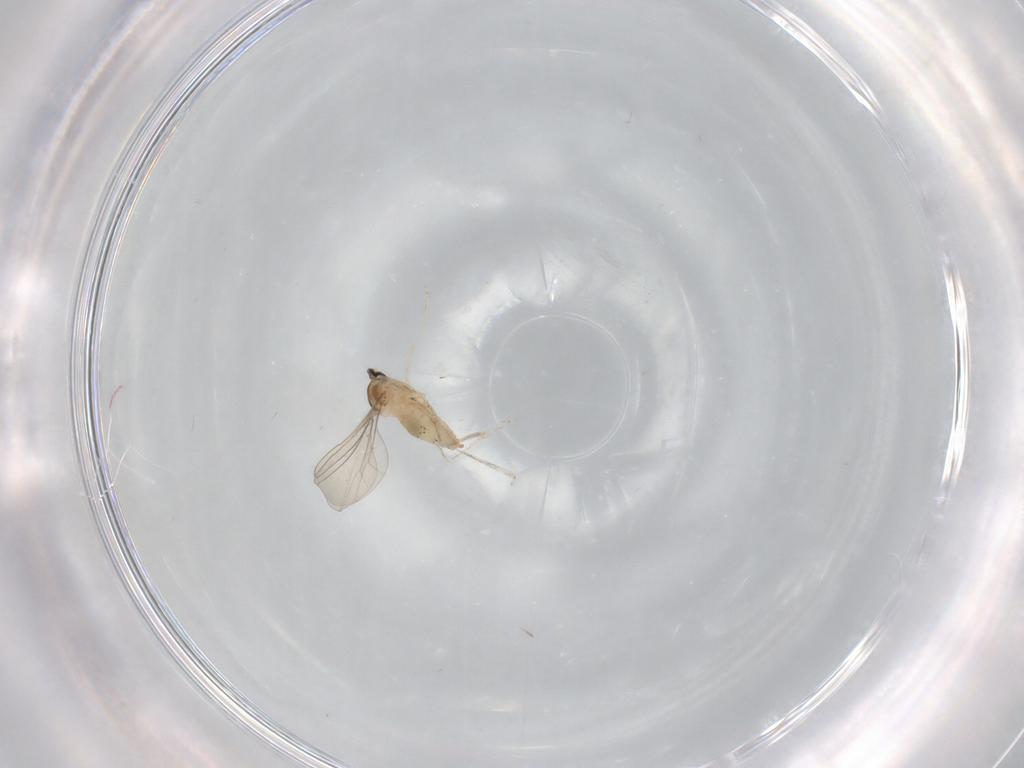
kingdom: Animalia
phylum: Arthropoda
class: Insecta
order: Diptera
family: Cecidomyiidae
